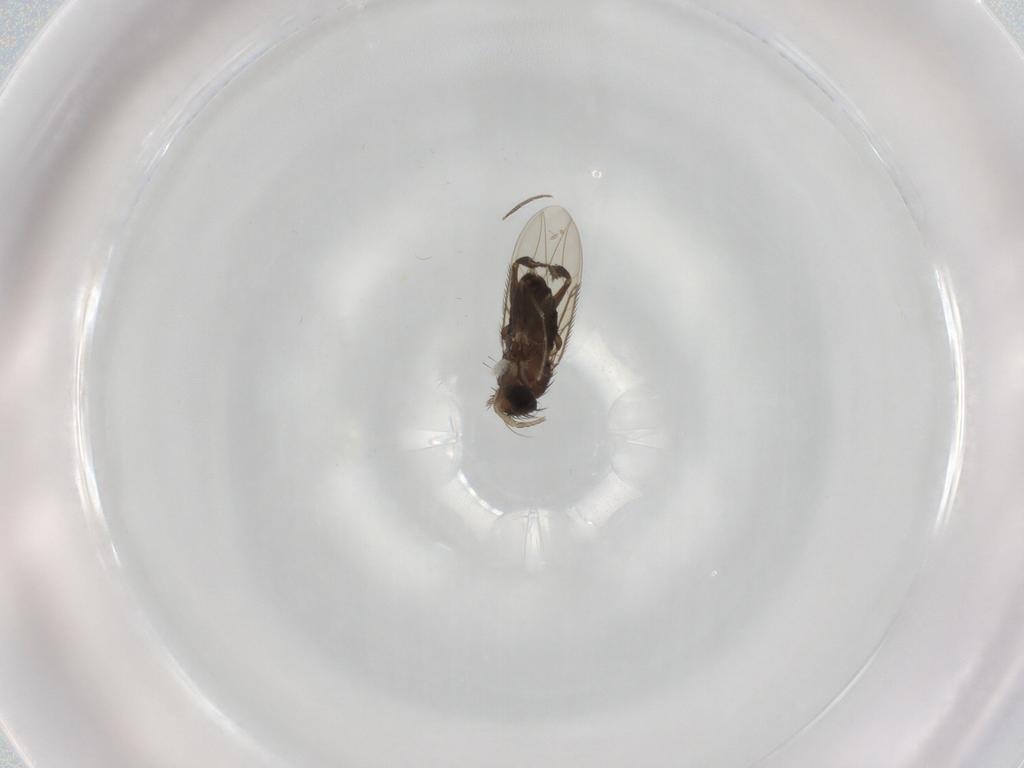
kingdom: Animalia
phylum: Arthropoda
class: Insecta
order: Diptera
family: Phoridae
